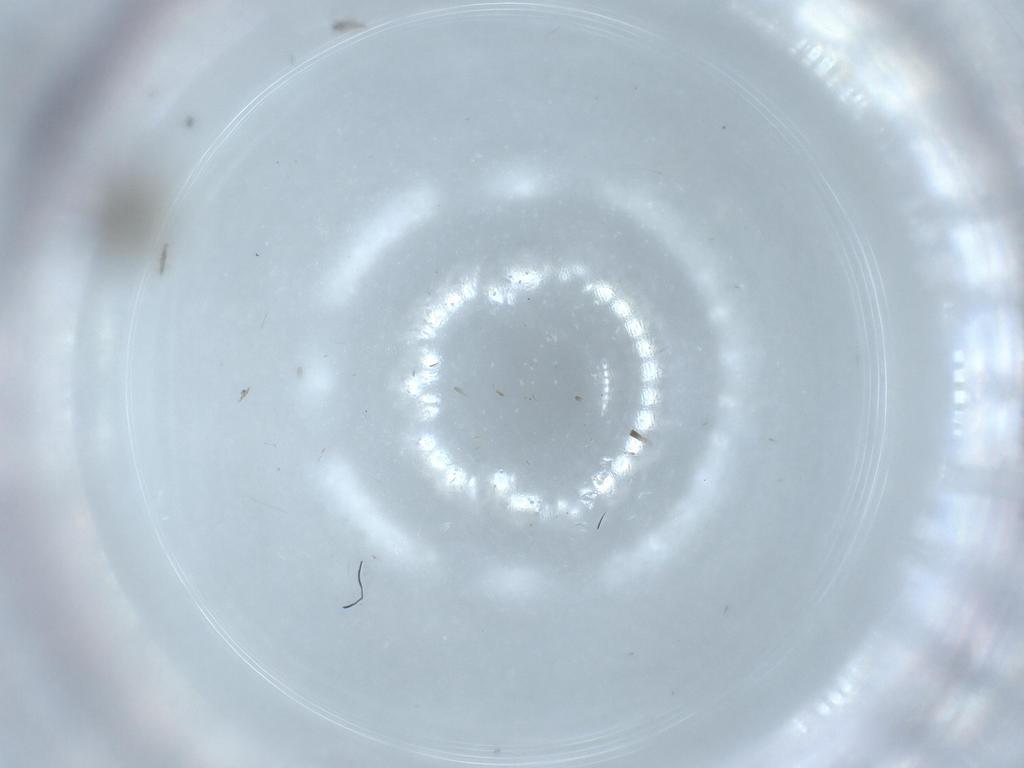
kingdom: Animalia
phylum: Arthropoda
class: Insecta
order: Diptera
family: Phoridae
